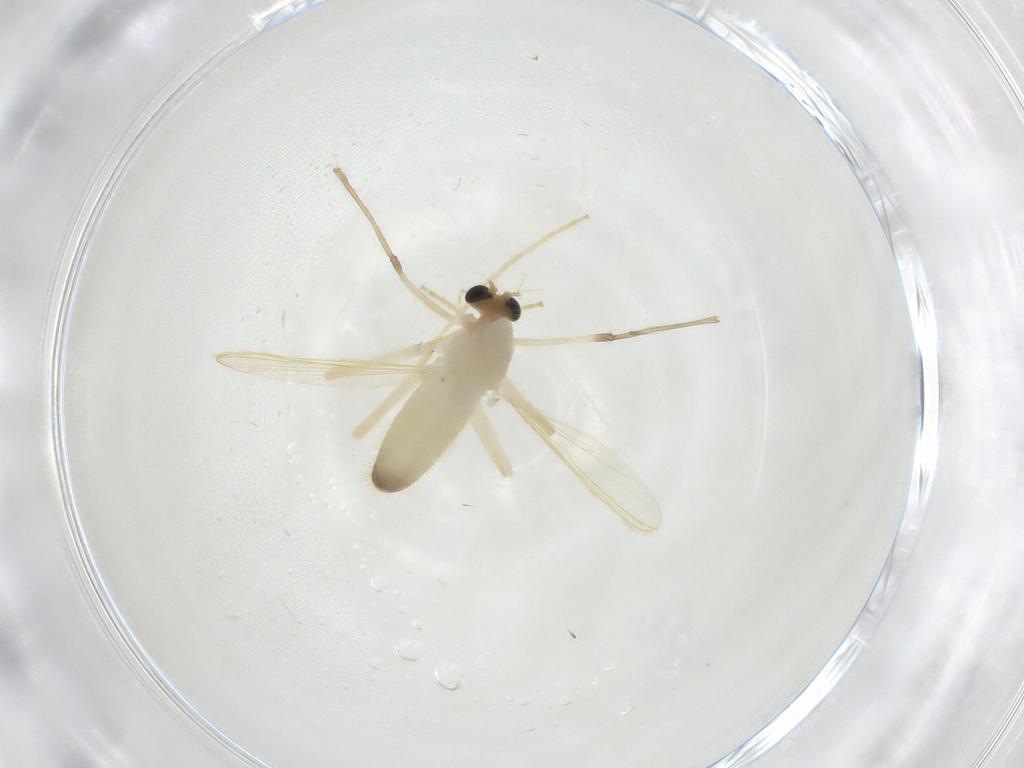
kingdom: Animalia
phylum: Arthropoda
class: Insecta
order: Diptera
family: Chironomidae
